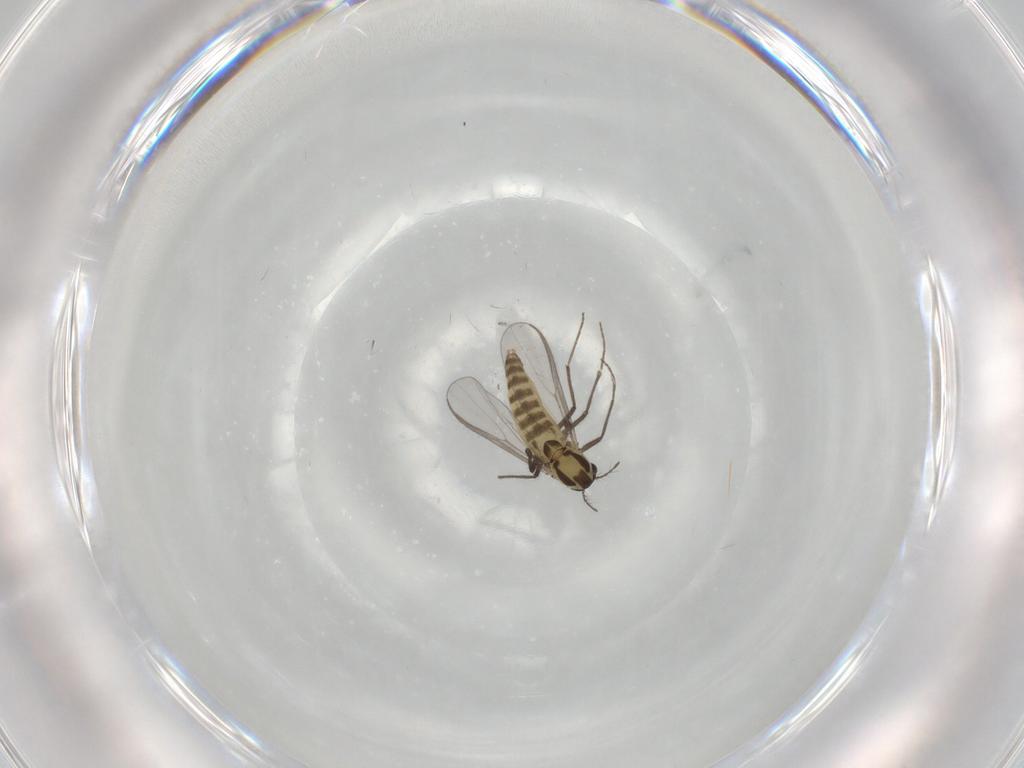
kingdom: Animalia
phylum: Arthropoda
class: Insecta
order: Diptera
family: Chironomidae
